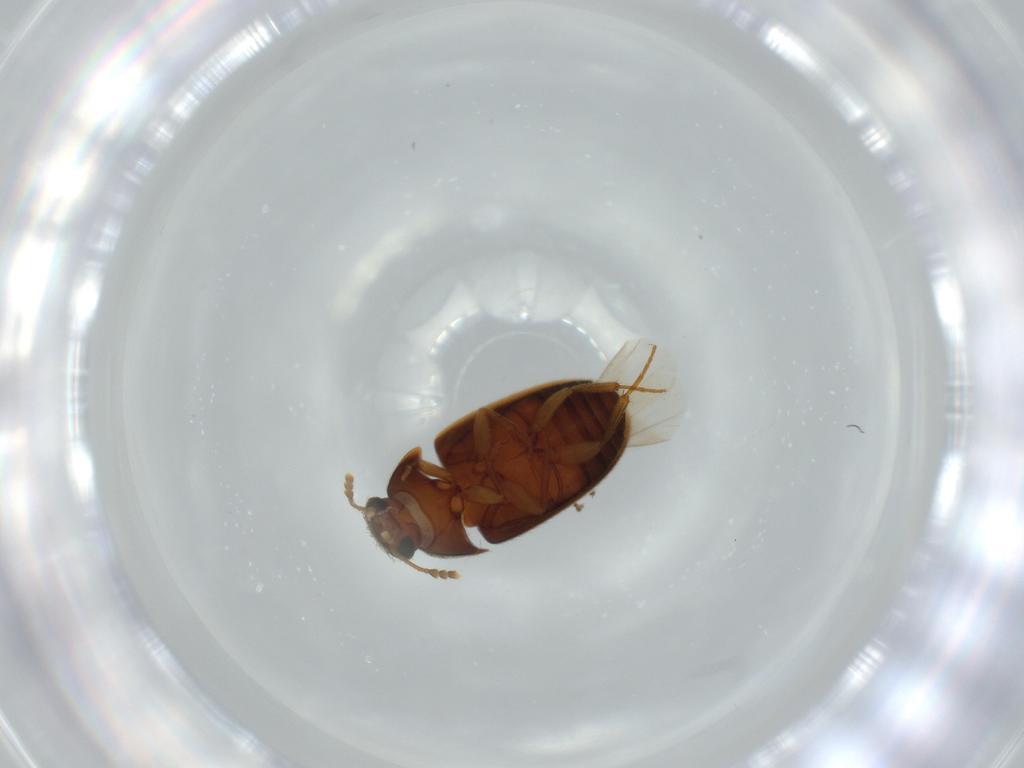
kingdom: Animalia
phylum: Arthropoda
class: Insecta
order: Coleoptera
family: Mycetophagidae
